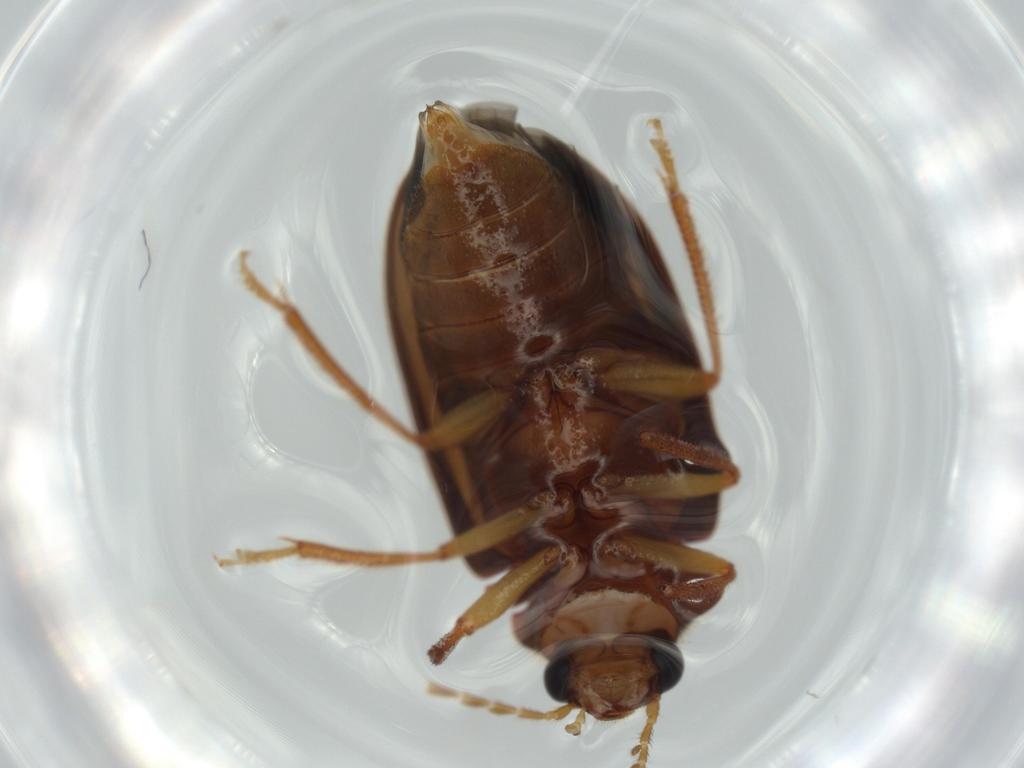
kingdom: Animalia
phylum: Arthropoda
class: Insecta
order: Coleoptera
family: Ptilodactylidae
